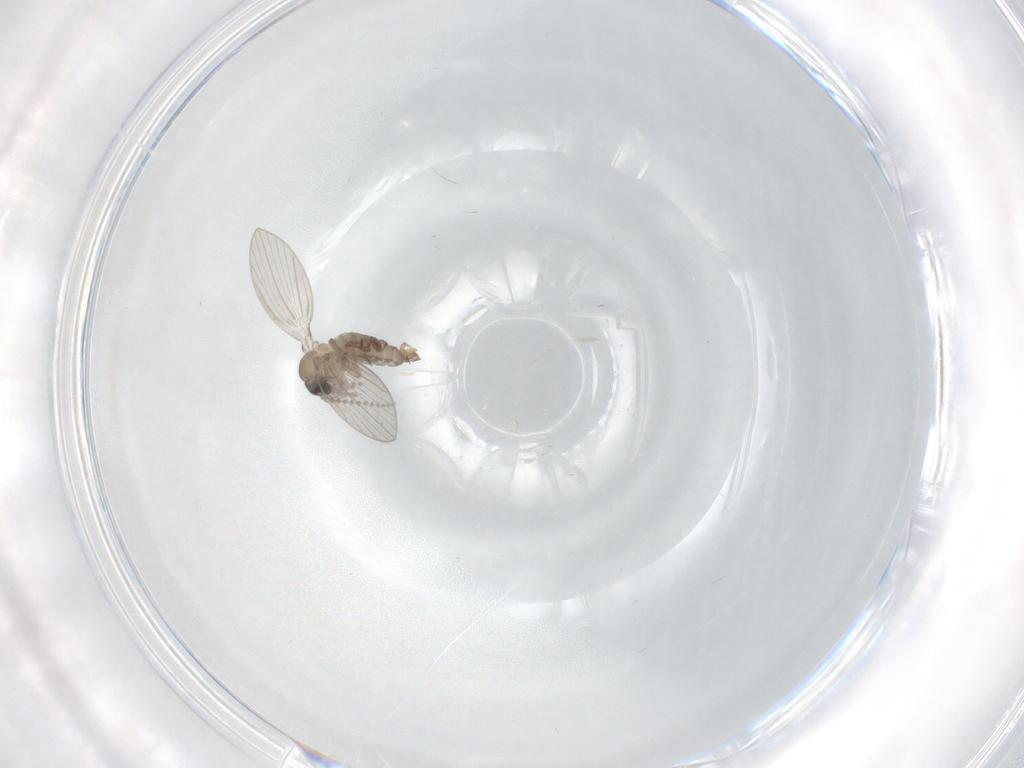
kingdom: Animalia
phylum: Arthropoda
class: Insecta
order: Diptera
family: Psychodidae
